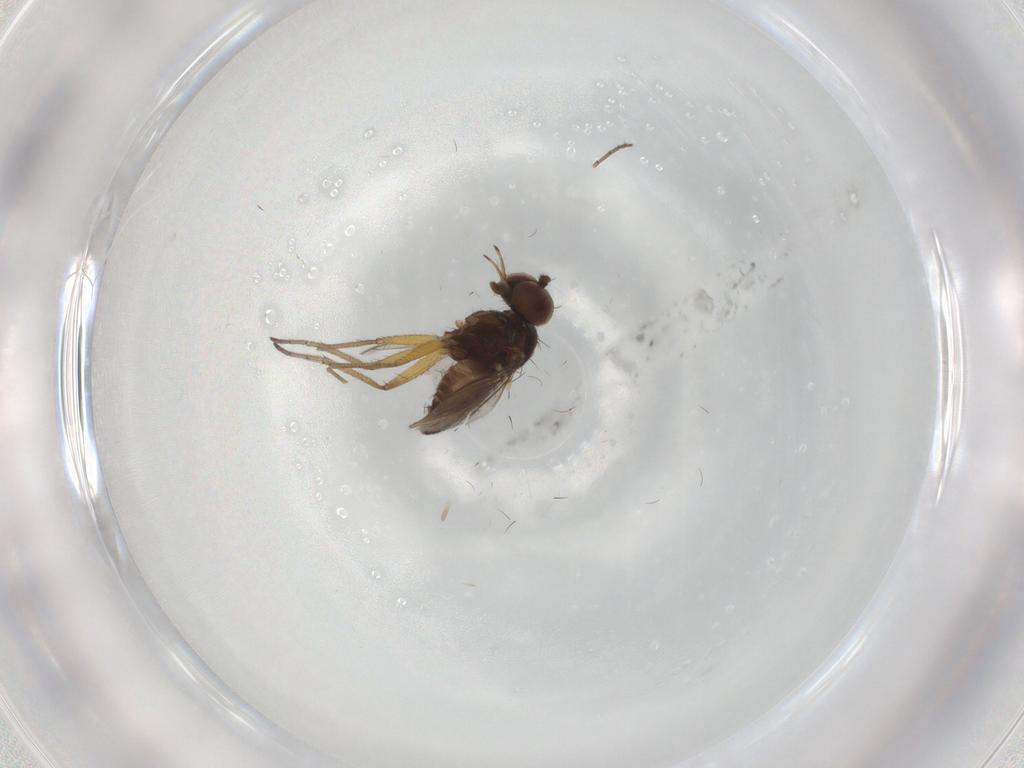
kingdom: Animalia
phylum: Arthropoda
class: Insecta
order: Diptera
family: Dolichopodidae
